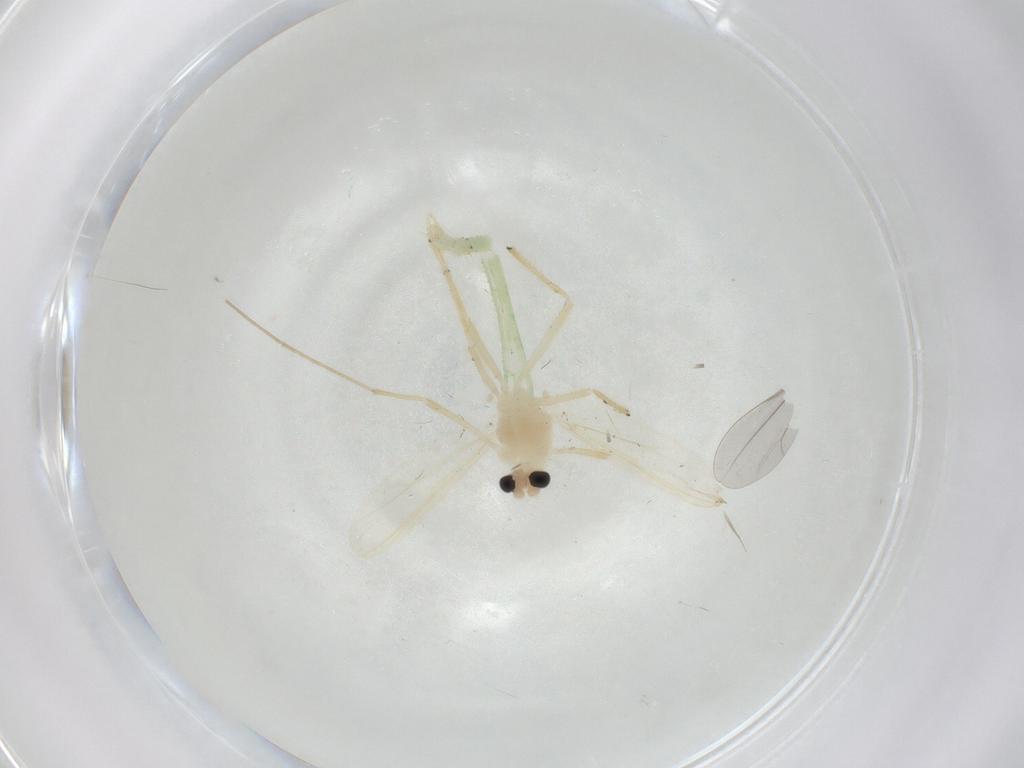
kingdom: Animalia
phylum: Arthropoda
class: Insecta
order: Diptera
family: Chironomidae
